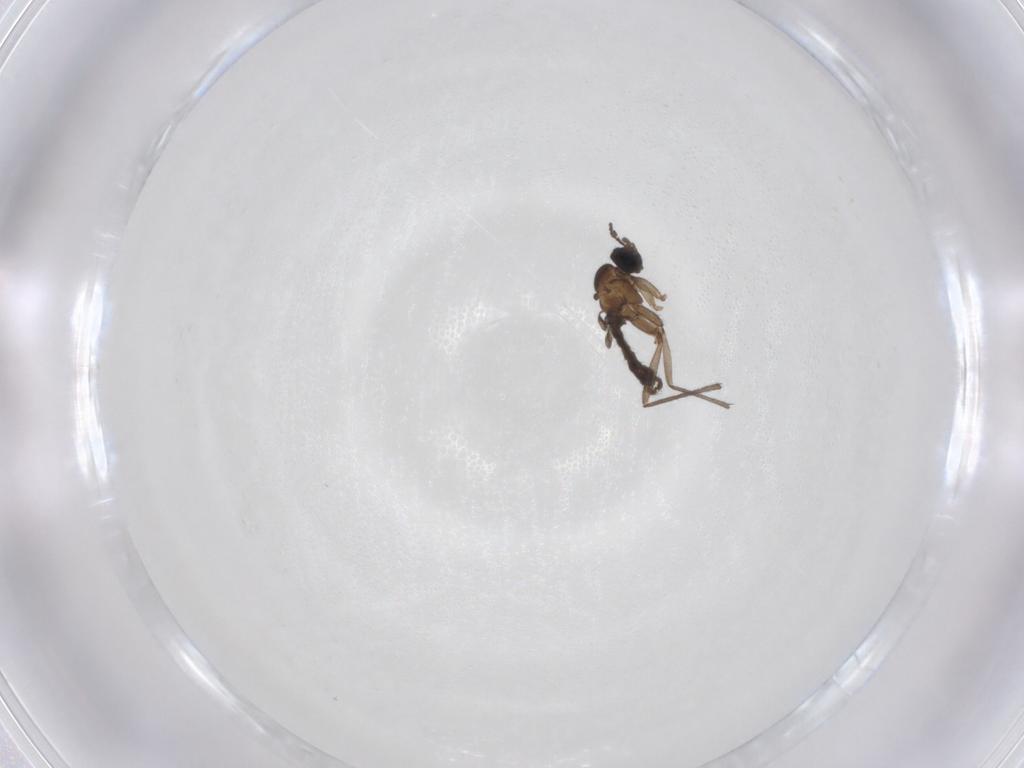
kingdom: Animalia
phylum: Arthropoda
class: Insecta
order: Diptera
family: Sciaridae
